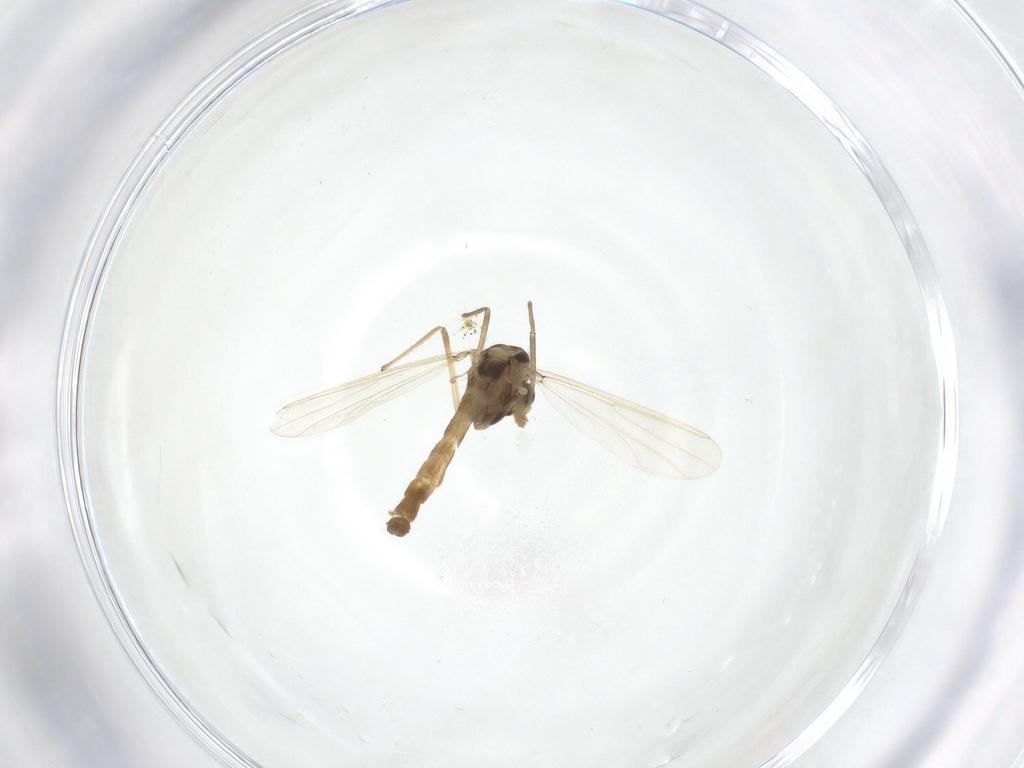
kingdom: Animalia
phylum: Arthropoda
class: Insecta
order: Diptera
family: Chironomidae
